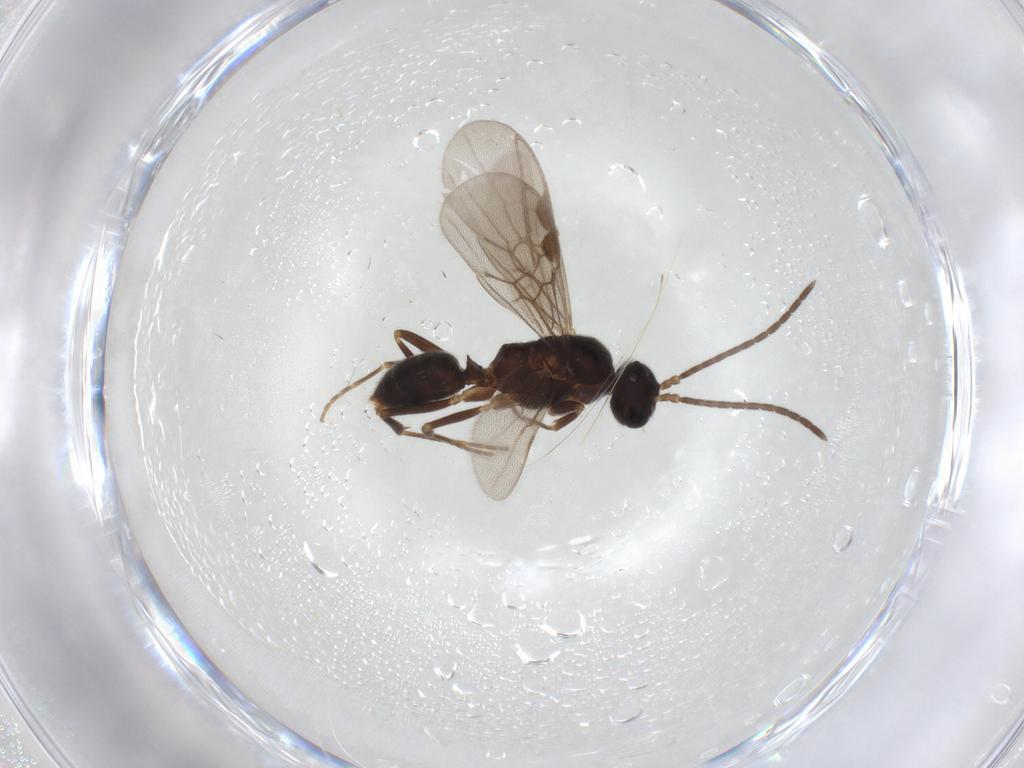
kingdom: Animalia
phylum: Arthropoda
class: Insecta
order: Hymenoptera
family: Formicidae
